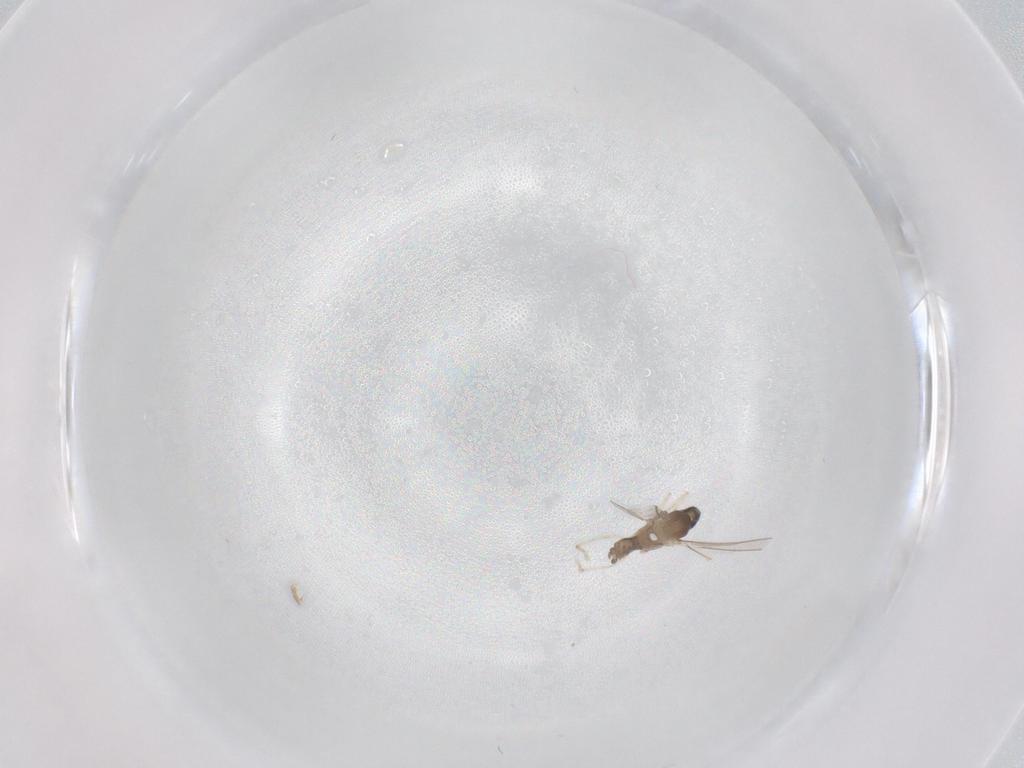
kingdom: Animalia
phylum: Arthropoda
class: Insecta
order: Diptera
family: Cecidomyiidae
